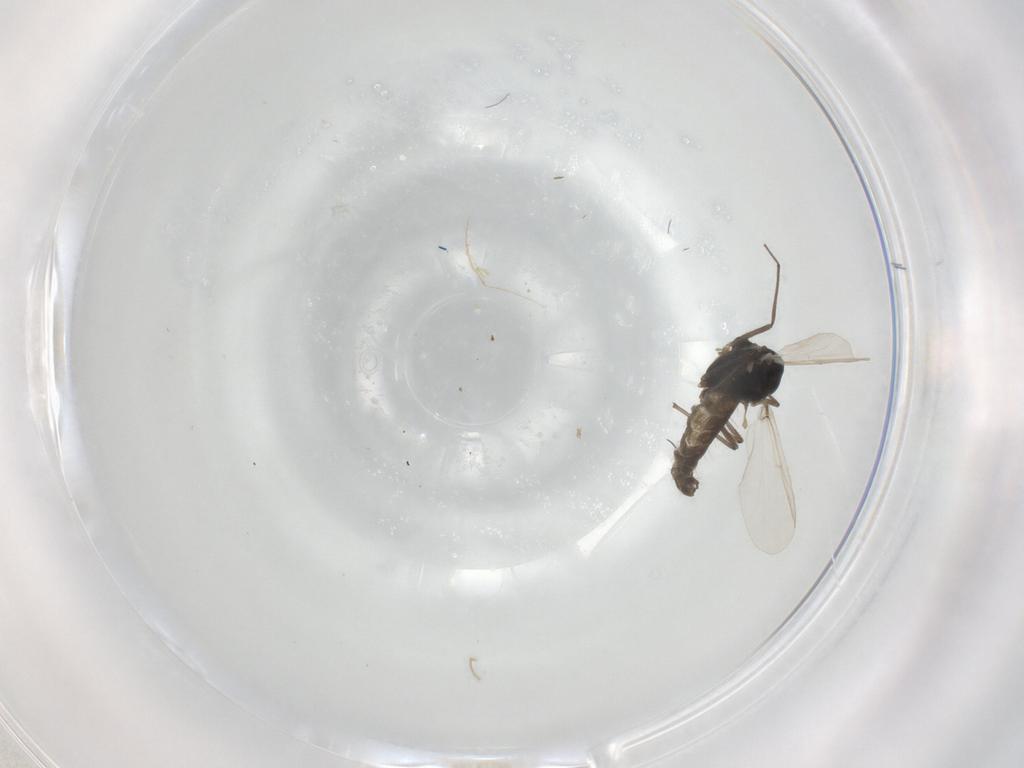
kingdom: Animalia
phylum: Arthropoda
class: Insecta
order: Diptera
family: Chironomidae
